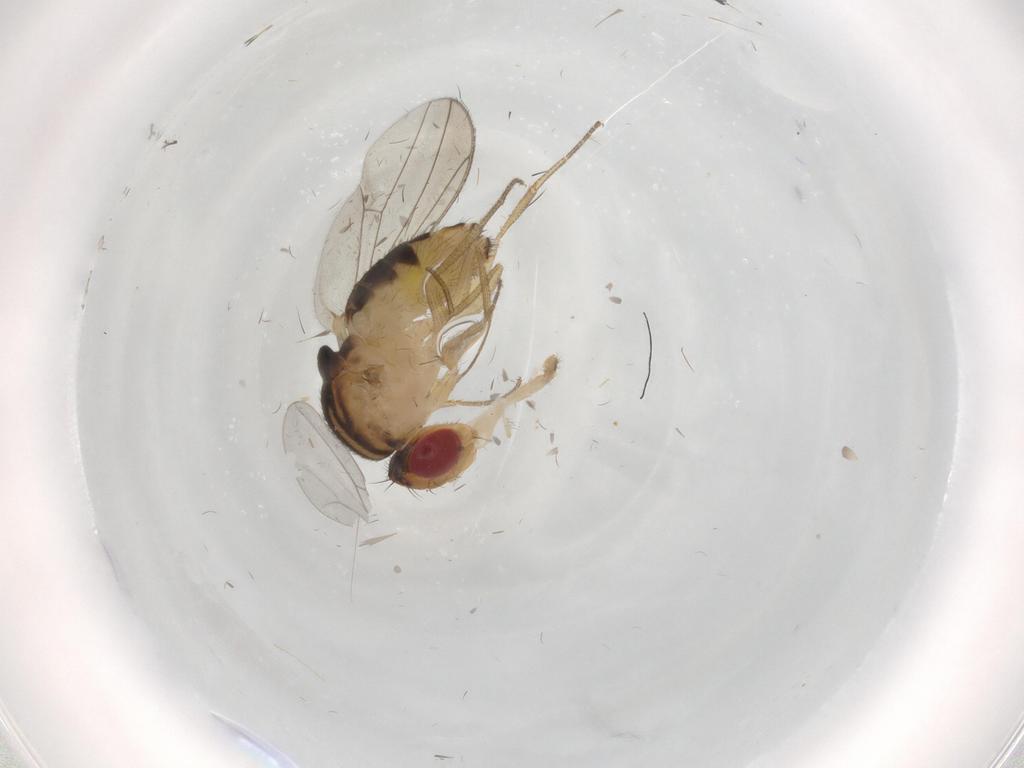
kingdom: Animalia
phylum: Arthropoda
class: Insecta
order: Diptera
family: Drosophilidae
